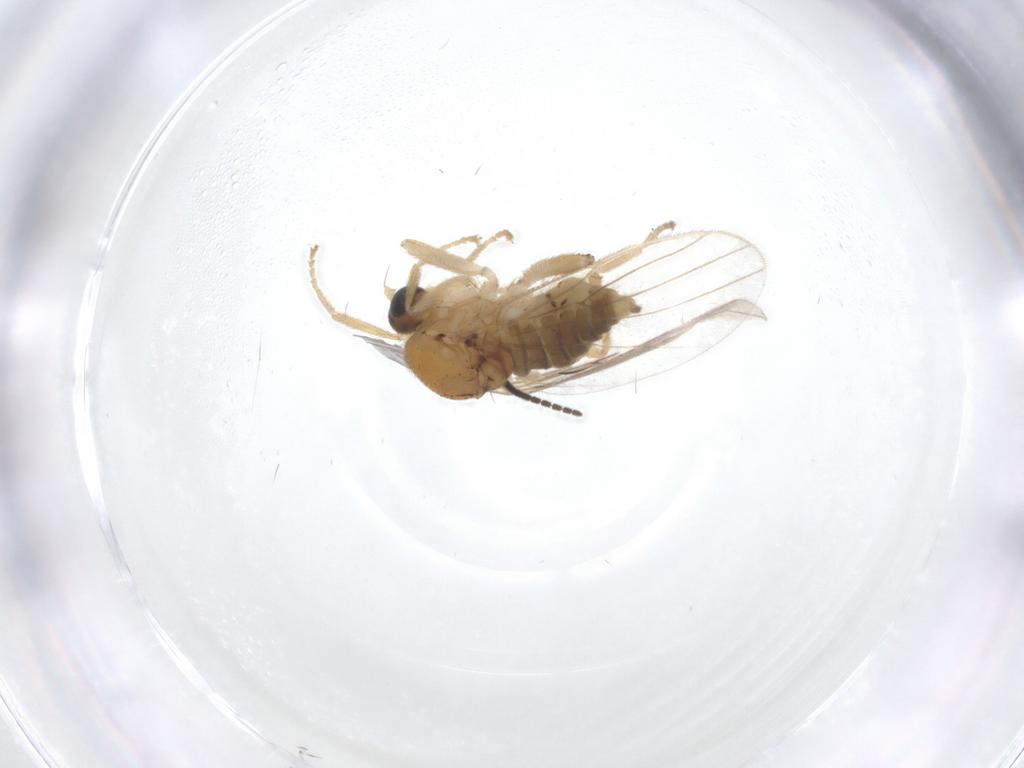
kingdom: Animalia
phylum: Arthropoda
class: Insecta
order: Diptera
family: Hybotidae
